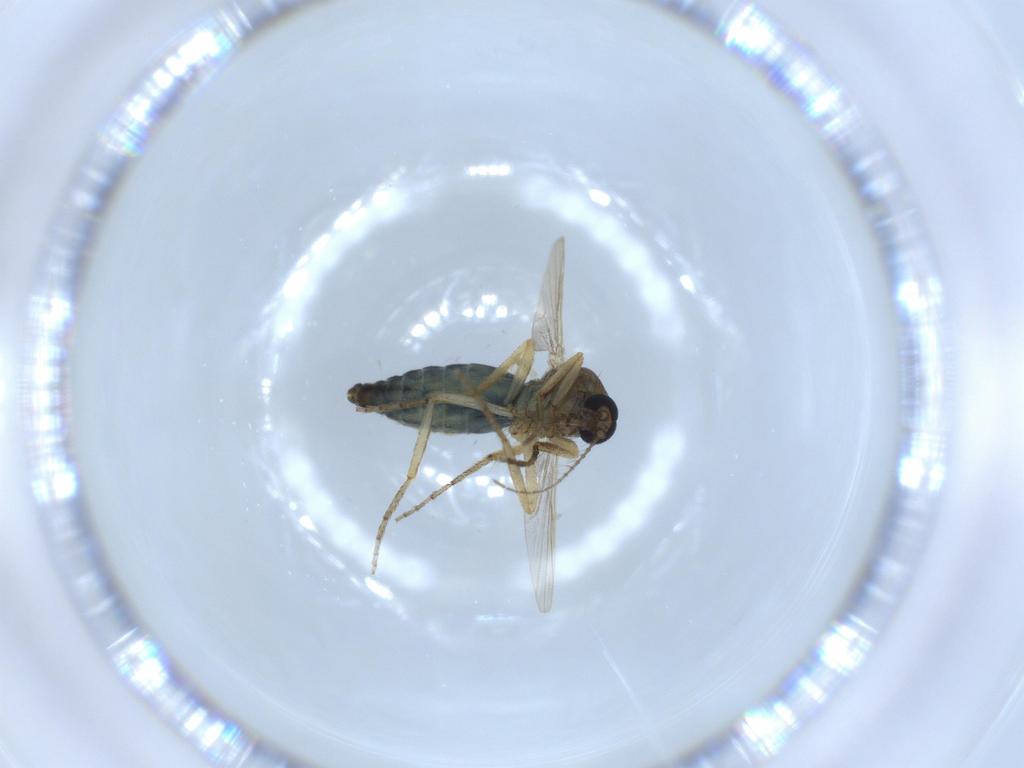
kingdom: Animalia
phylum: Arthropoda
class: Insecta
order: Diptera
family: Ceratopogonidae
